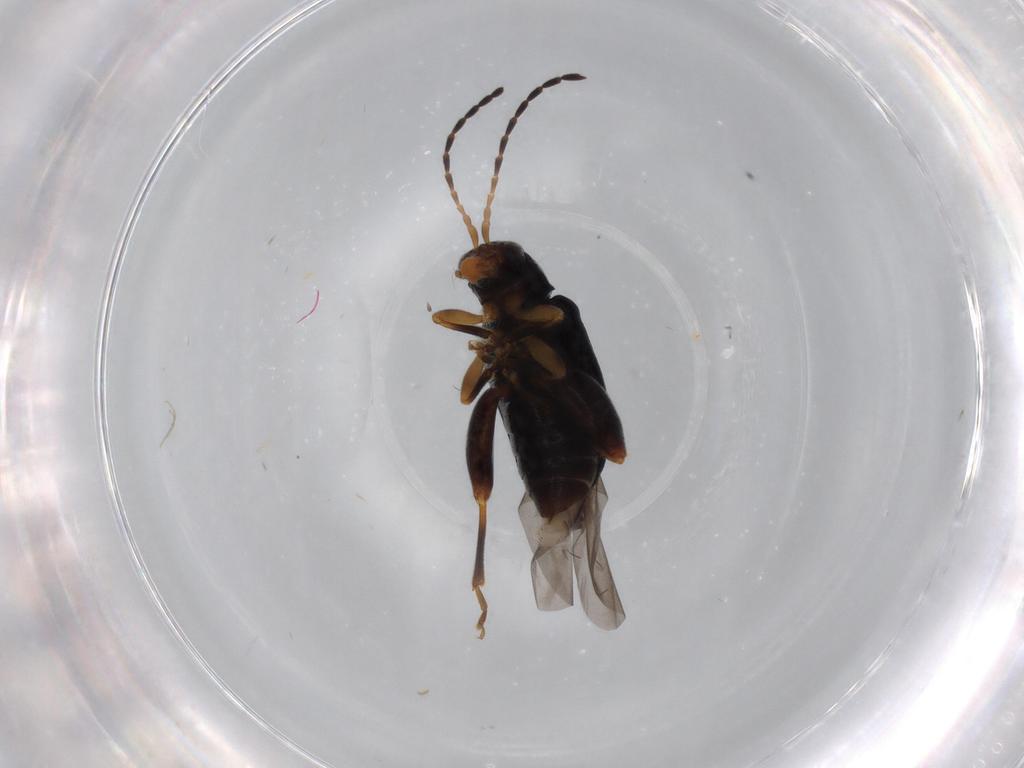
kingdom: Animalia
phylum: Arthropoda
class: Insecta
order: Coleoptera
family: Chrysomelidae
